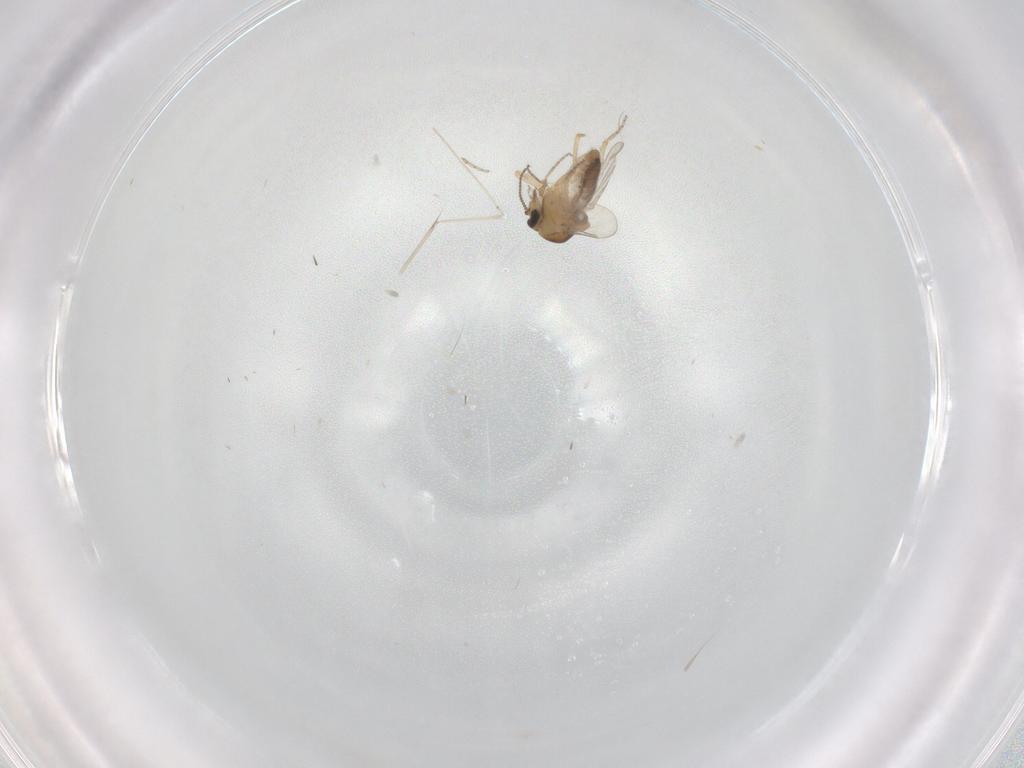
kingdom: Animalia
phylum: Arthropoda
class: Insecta
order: Diptera
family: Ceratopogonidae
